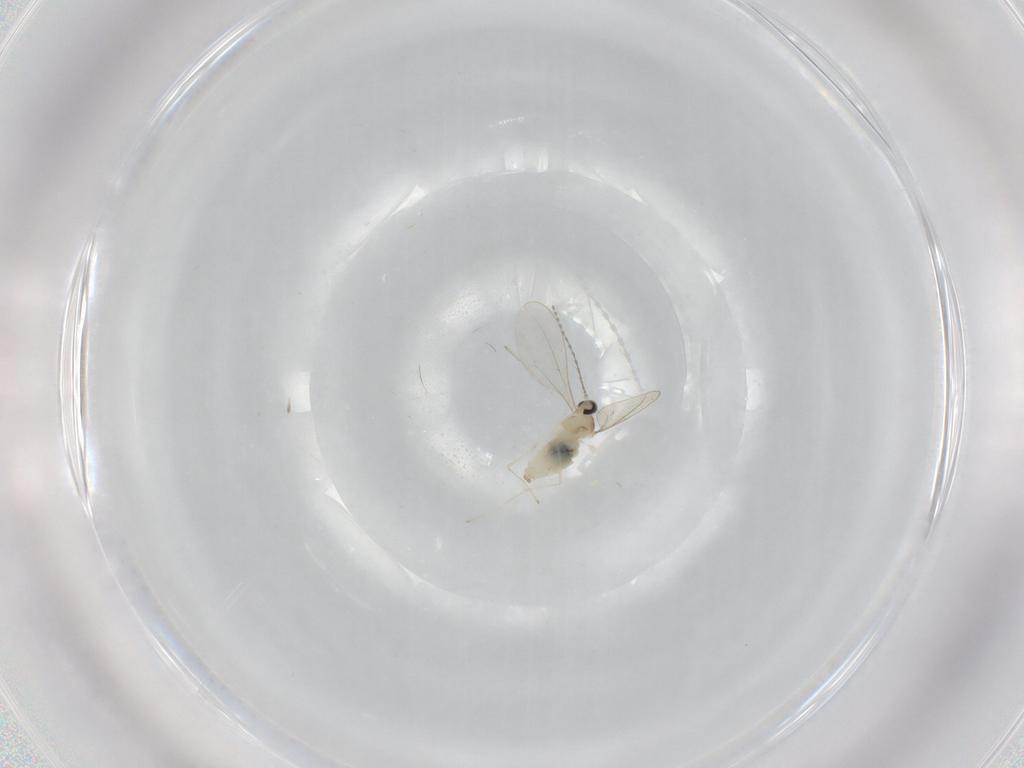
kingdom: Animalia
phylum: Arthropoda
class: Insecta
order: Diptera
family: Cecidomyiidae
